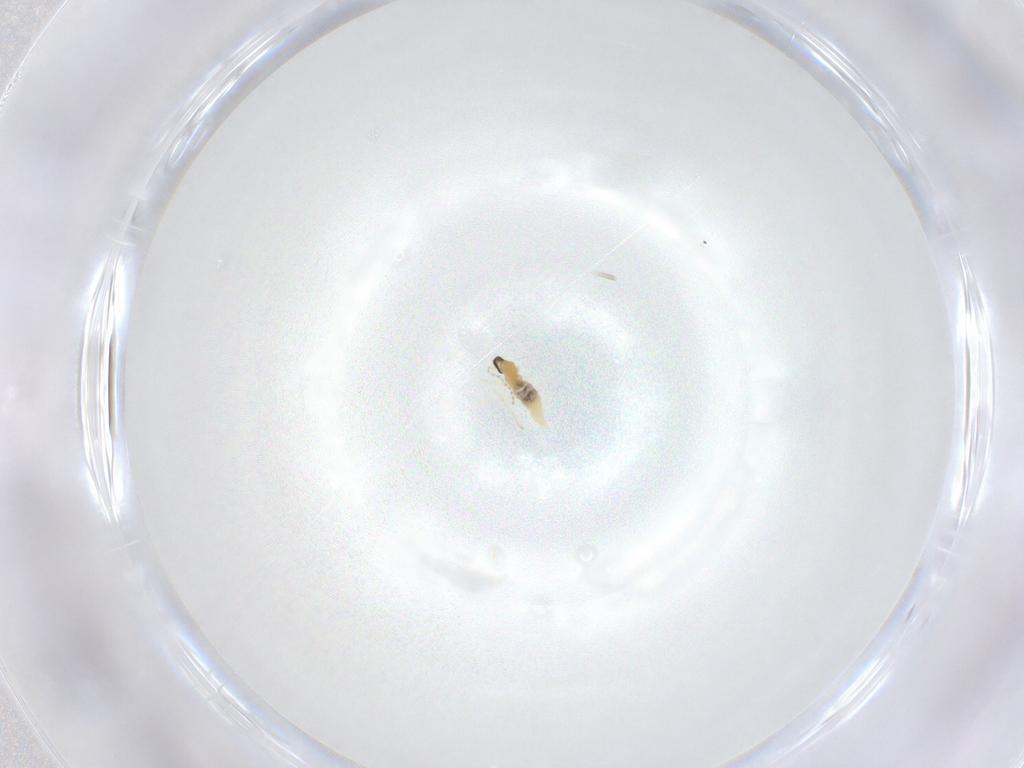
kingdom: Animalia
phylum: Arthropoda
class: Insecta
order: Diptera
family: Cecidomyiidae
